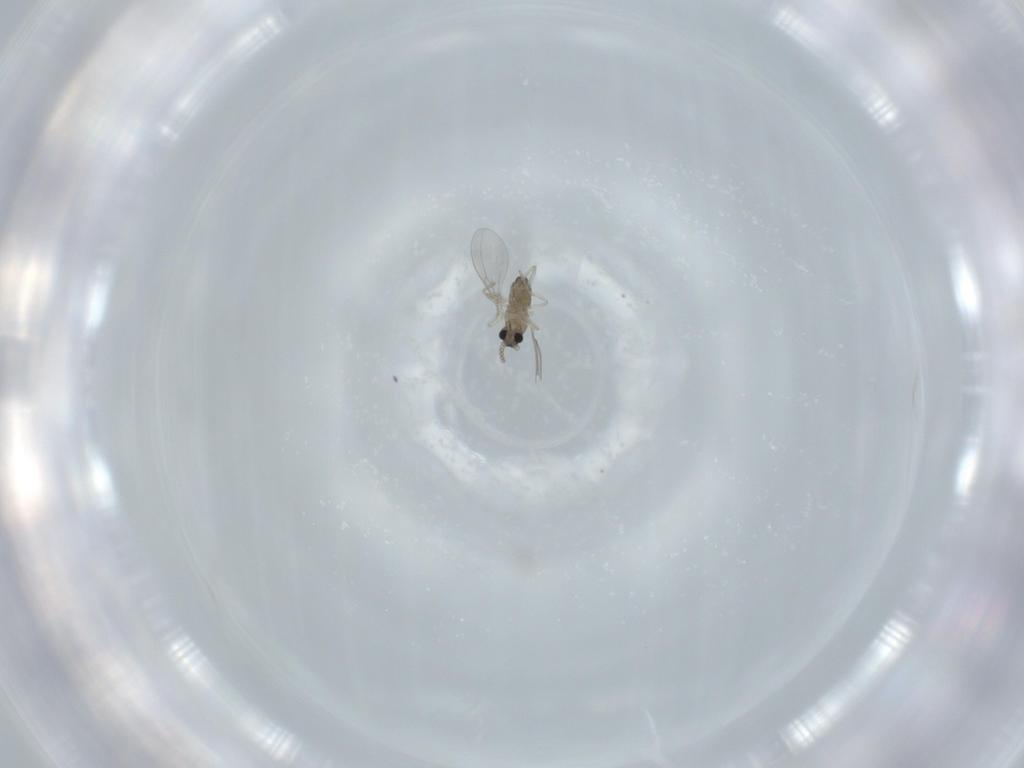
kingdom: Animalia
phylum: Arthropoda
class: Insecta
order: Diptera
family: Cecidomyiidae
